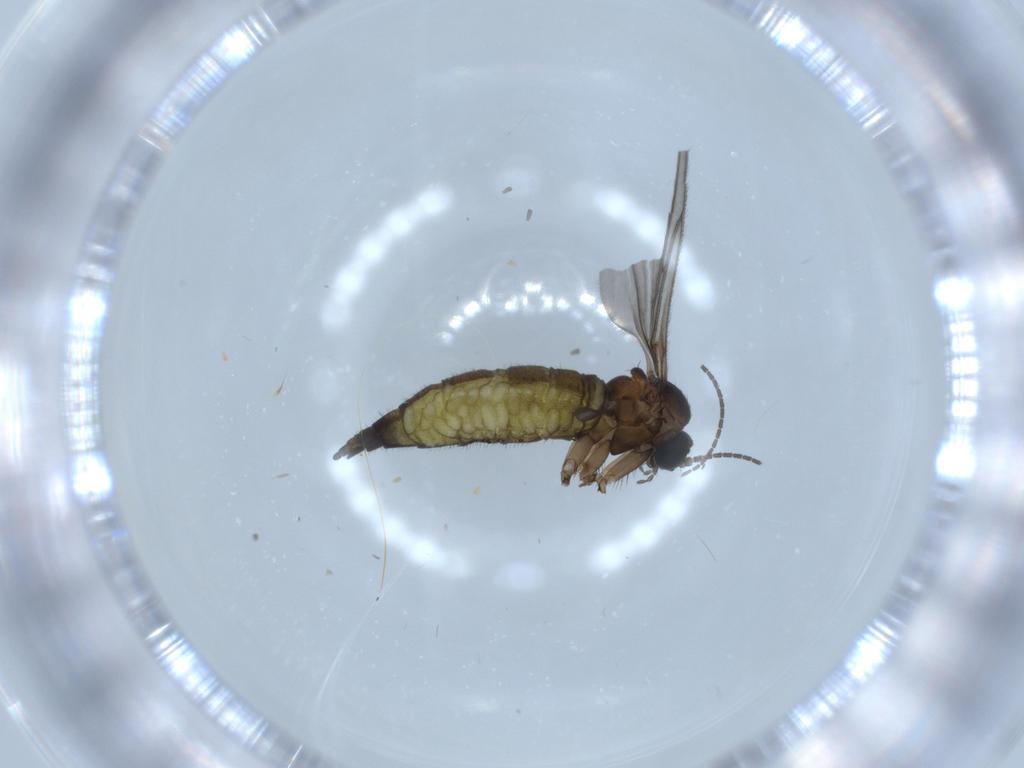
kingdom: Animalia
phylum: Arthropoda
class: Insecta
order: Diptera
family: Sciaridae
